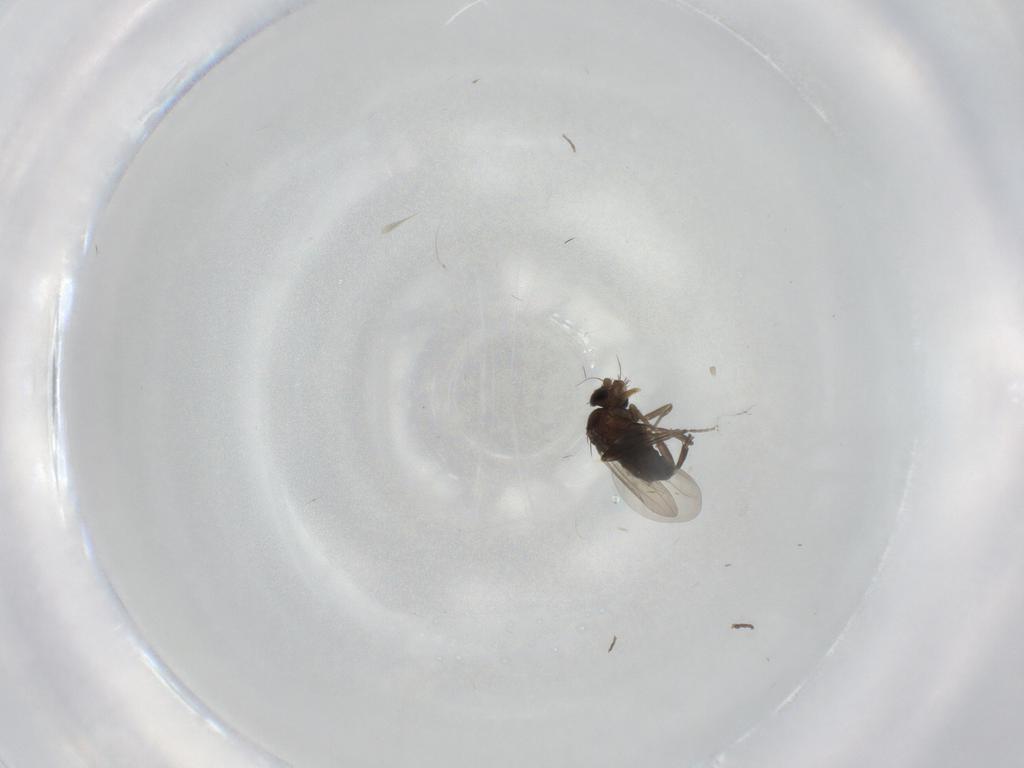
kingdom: Animalia
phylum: Arthropoda
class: Insecta
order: Diptera
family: Phoridae
